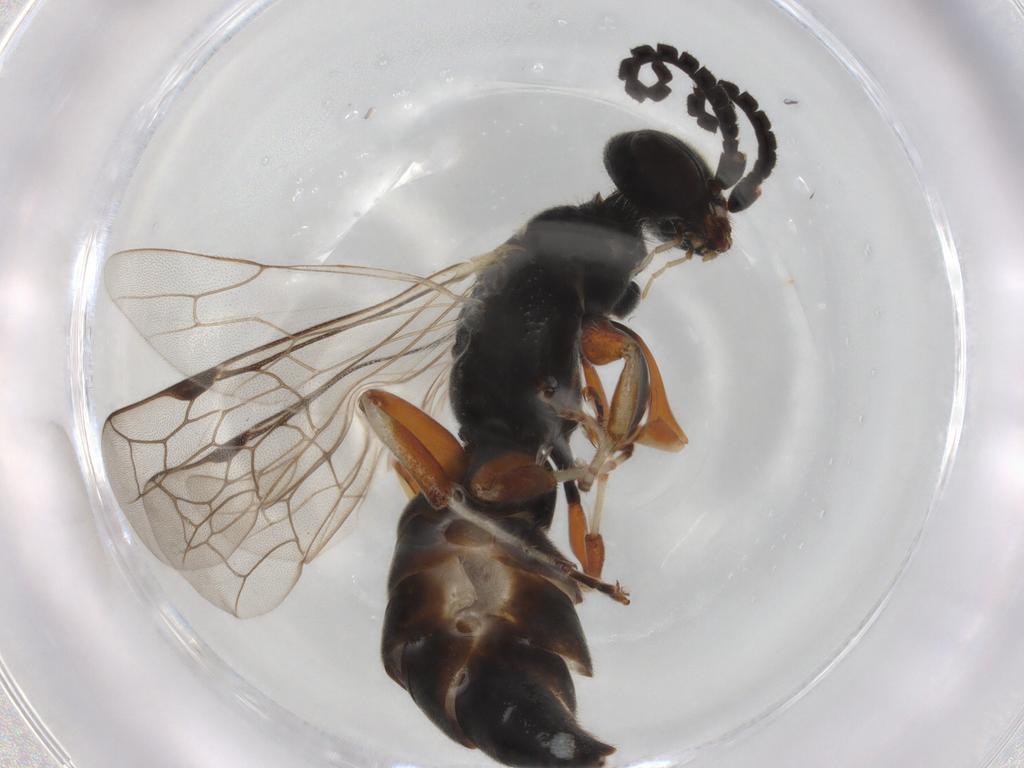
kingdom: Animalia
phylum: Arthropoda
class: Insecta
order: Hymenoptera
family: Thynnidae
